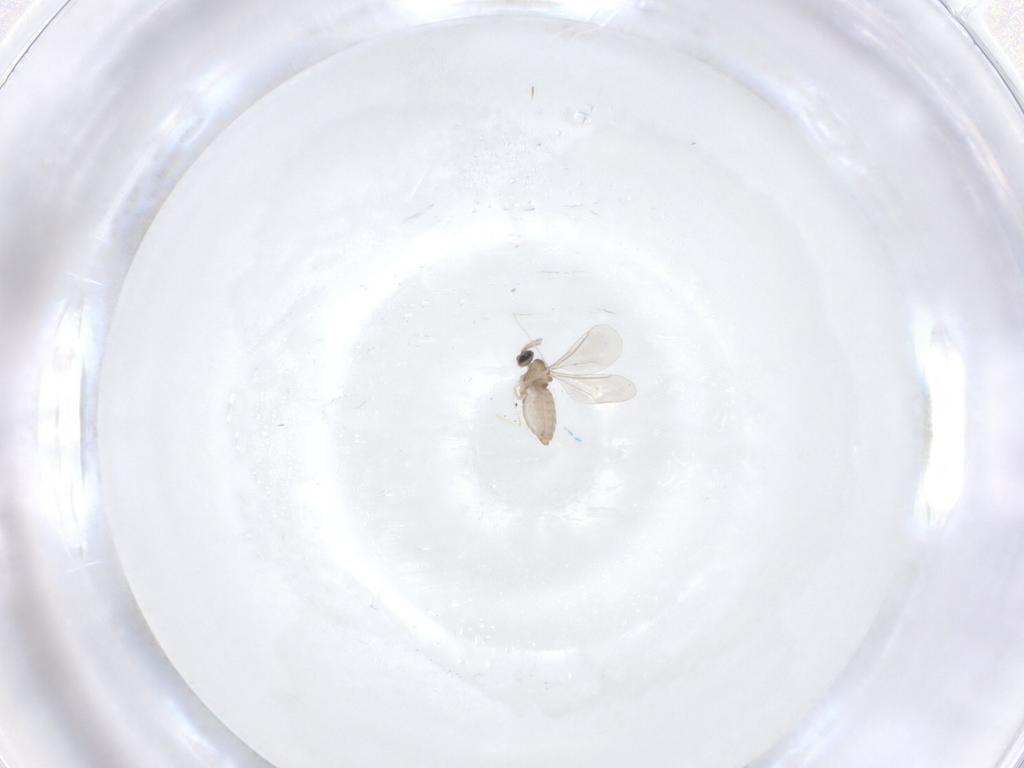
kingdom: Animalia
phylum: Arthropoda
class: Insecta
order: Diptera
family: Cecidomyiidae
